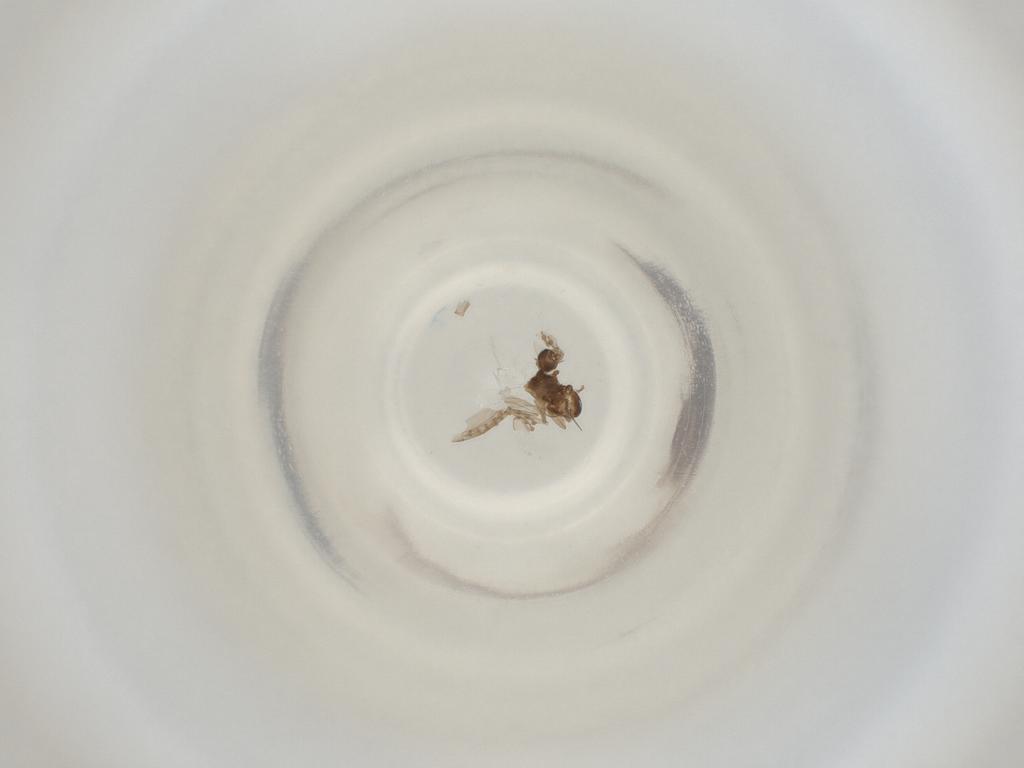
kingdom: Animalia
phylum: Arthropoda
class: Insecta
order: Diptera
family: Cecidomyiidae
